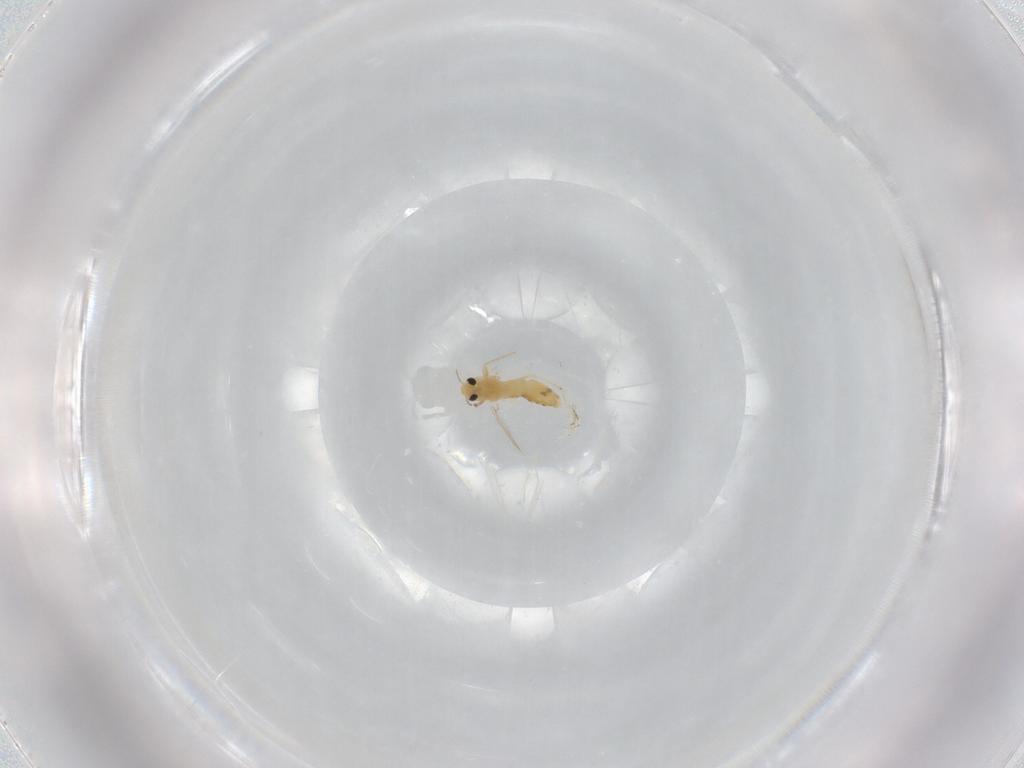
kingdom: Animalia
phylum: Arthropoda
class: Insecta
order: Diptera
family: Chironomidae
